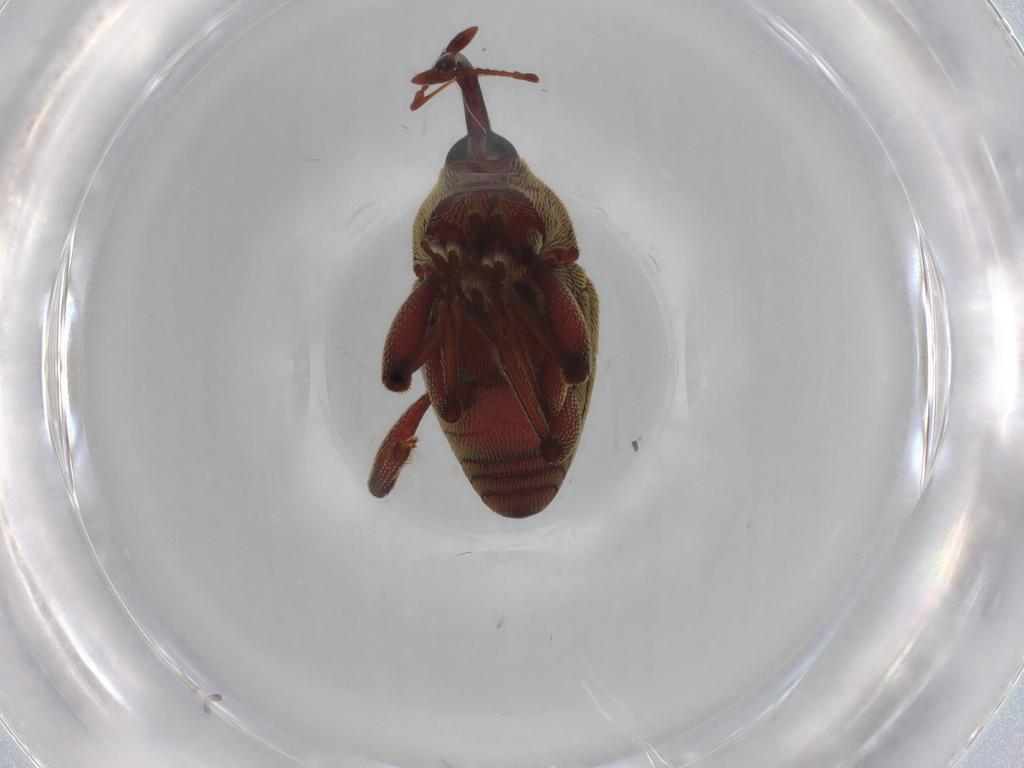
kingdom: Animalia
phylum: Arthropoda
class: Insecta
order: Coleoptera
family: Curculionidae
